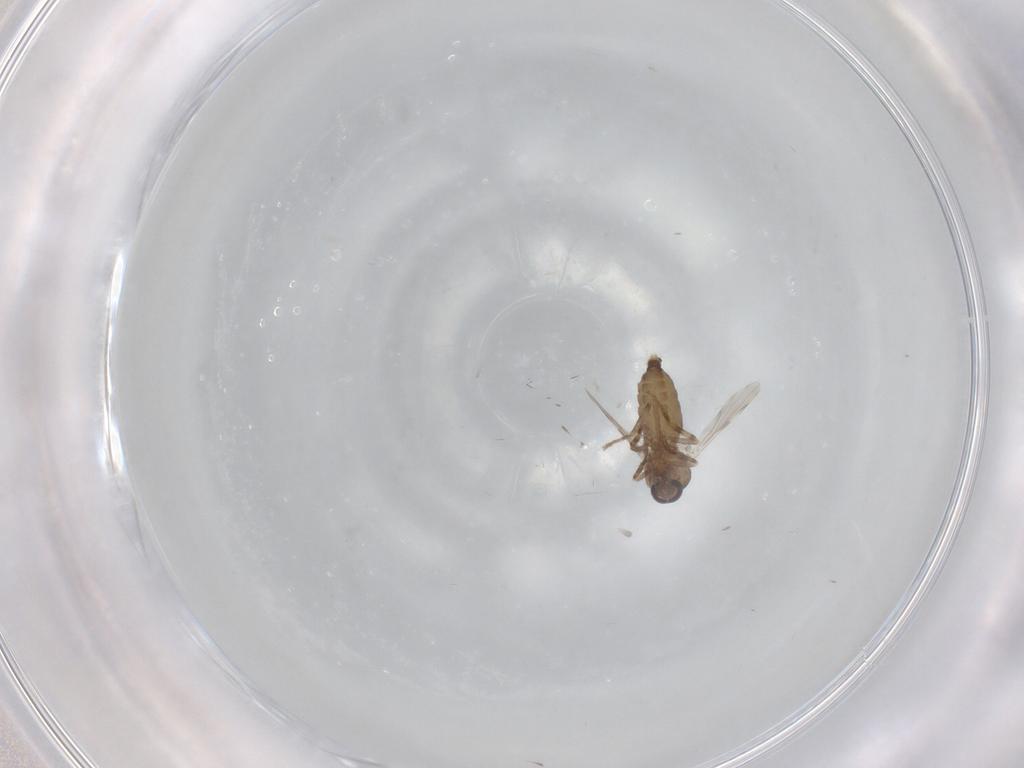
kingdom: Animalia
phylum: Arthropoda
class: Insecta
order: Diptera
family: Ceratopogonidae
